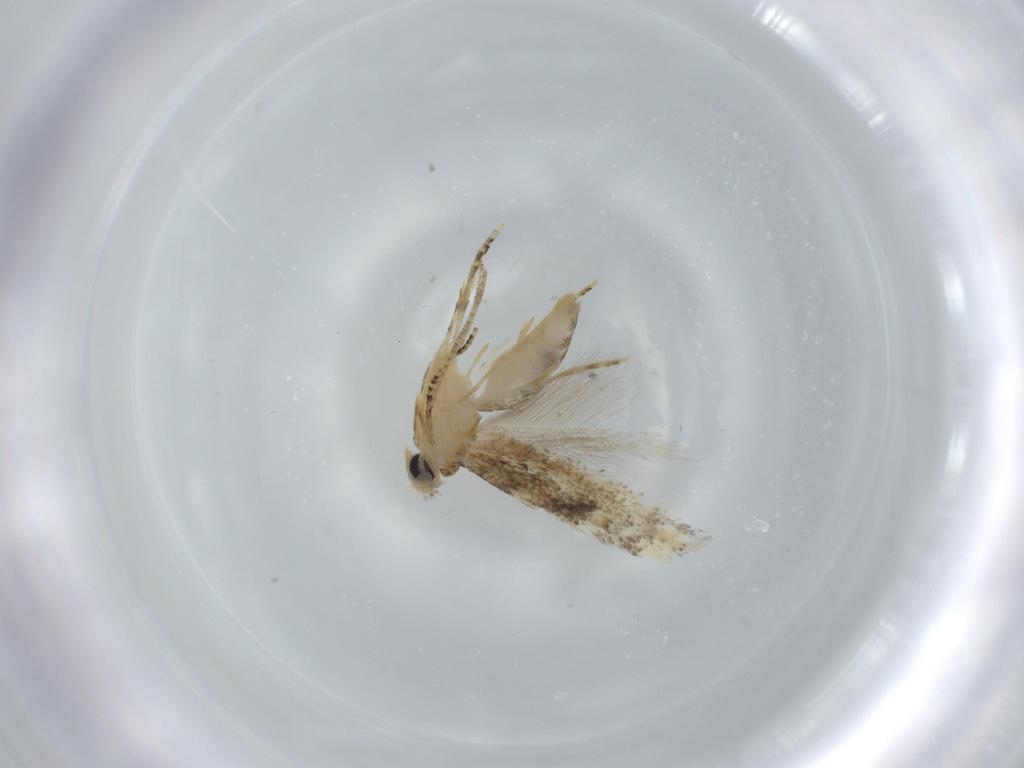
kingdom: Animalia
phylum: Arthropoda
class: Insecta
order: Lepidoptera
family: Bucculatricidae
